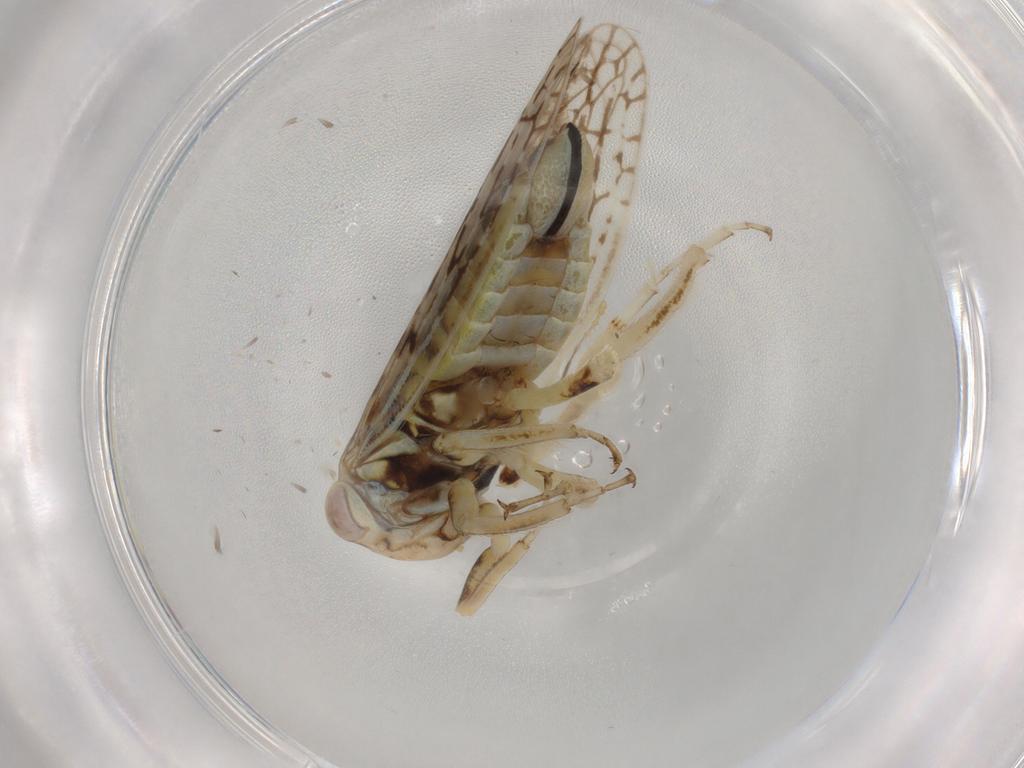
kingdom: Animalia
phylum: Arthropoda
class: Insecta
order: Hemiptera
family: Cicadellidae
